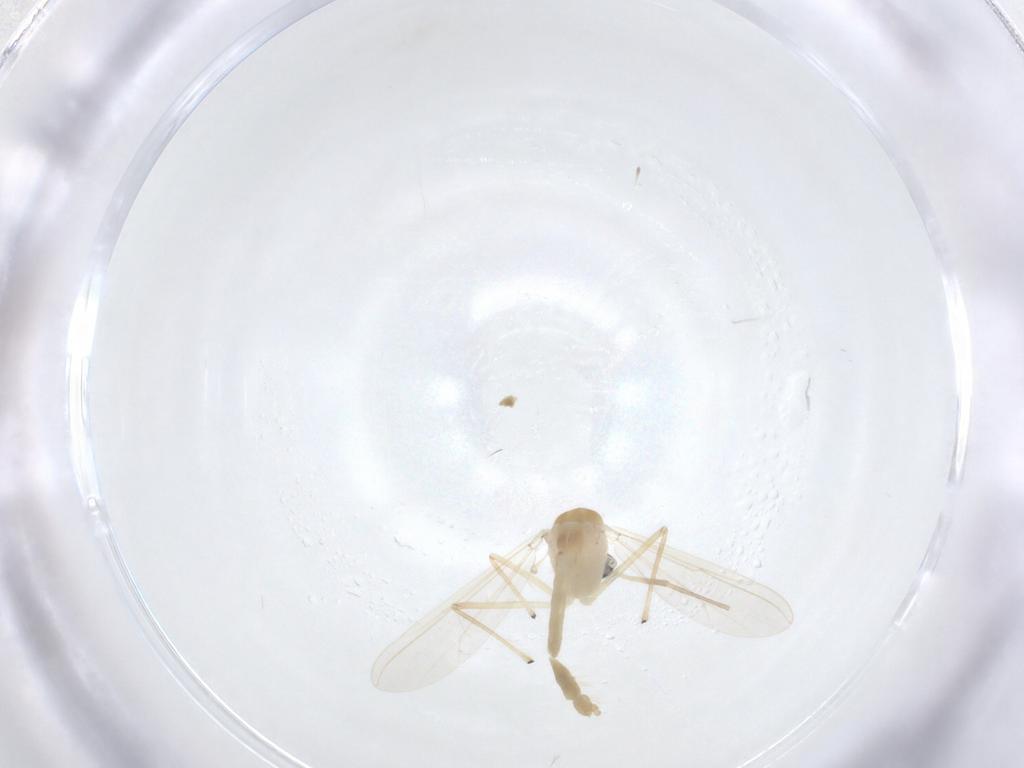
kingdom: Animalia
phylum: Arthropoda
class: Insecta
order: Diptera
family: Chironomidae
